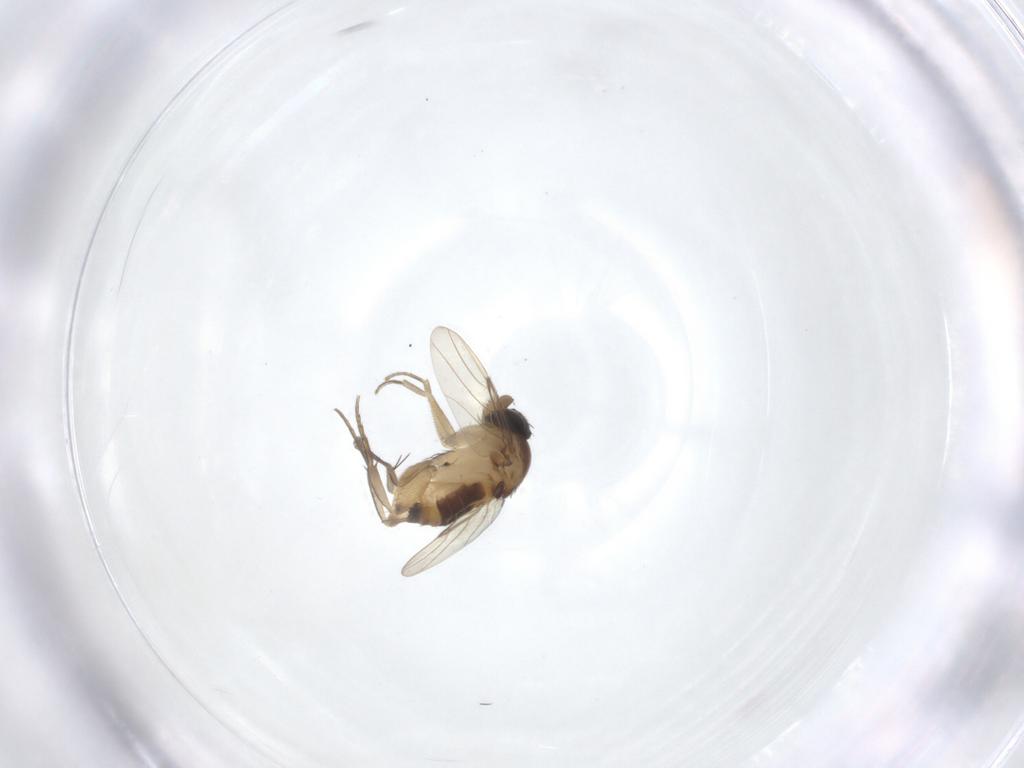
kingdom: Animalia
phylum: Arthropoda
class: Insecta
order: Diptera
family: Phoridae
